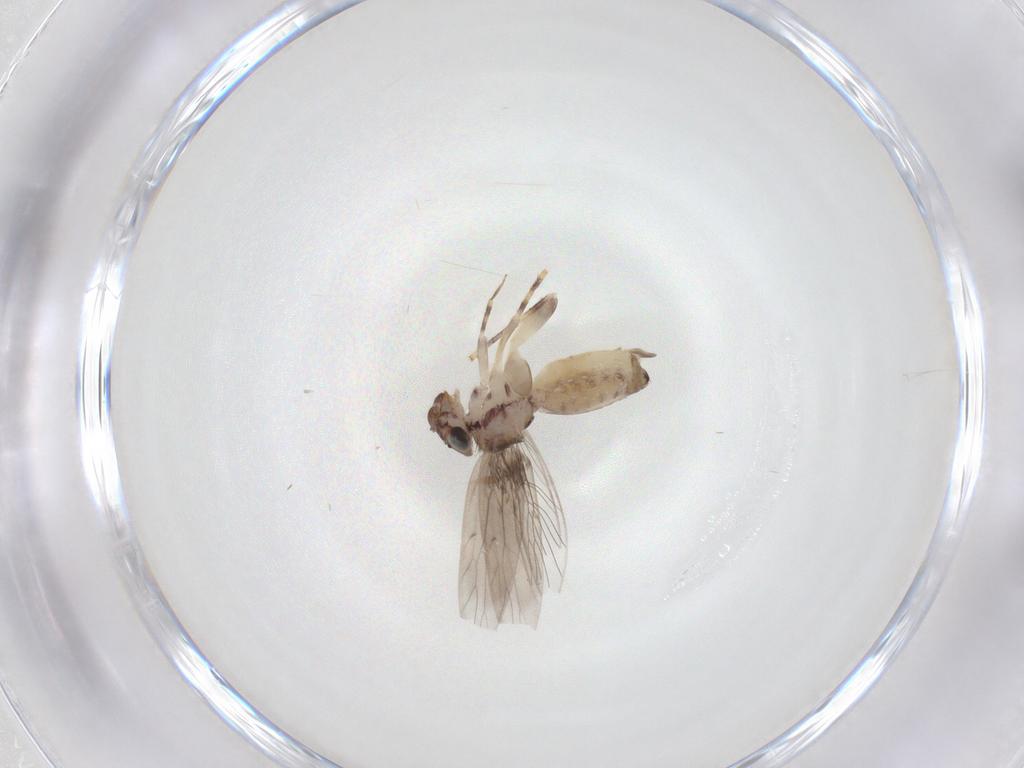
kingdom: Animalia
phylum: Arthropoda
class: Insecta
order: Psocodea
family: Lepidopsocidae
